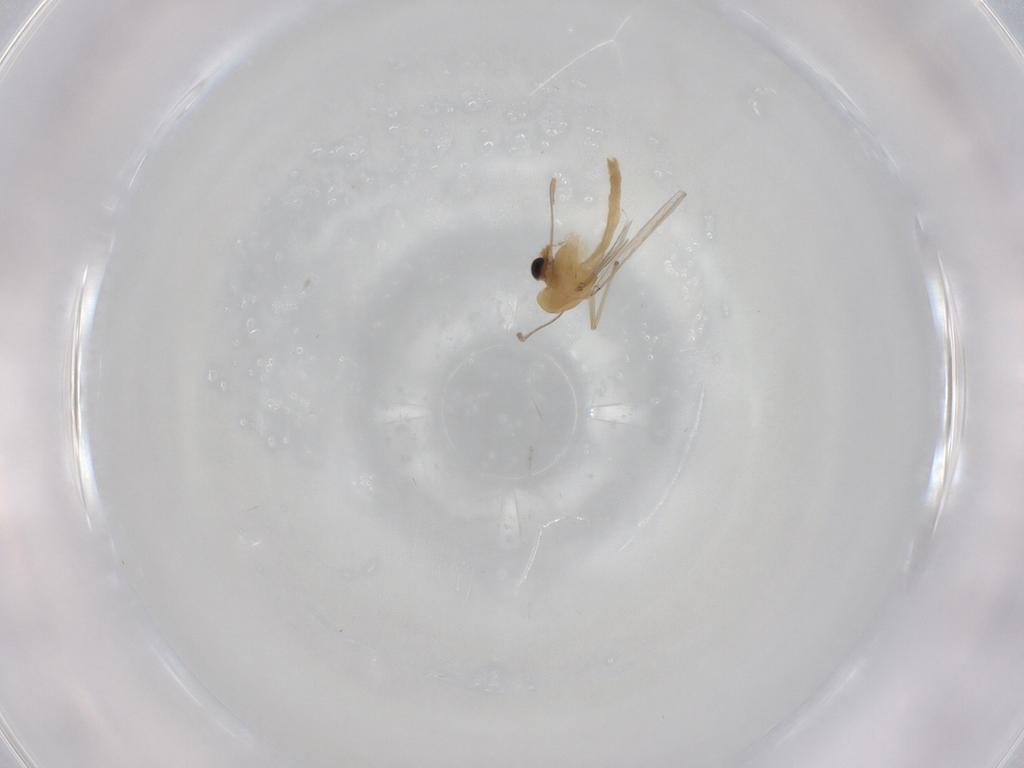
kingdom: Animalia
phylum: Arthropoda
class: Insecta
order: Diptera
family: Chironomidae
